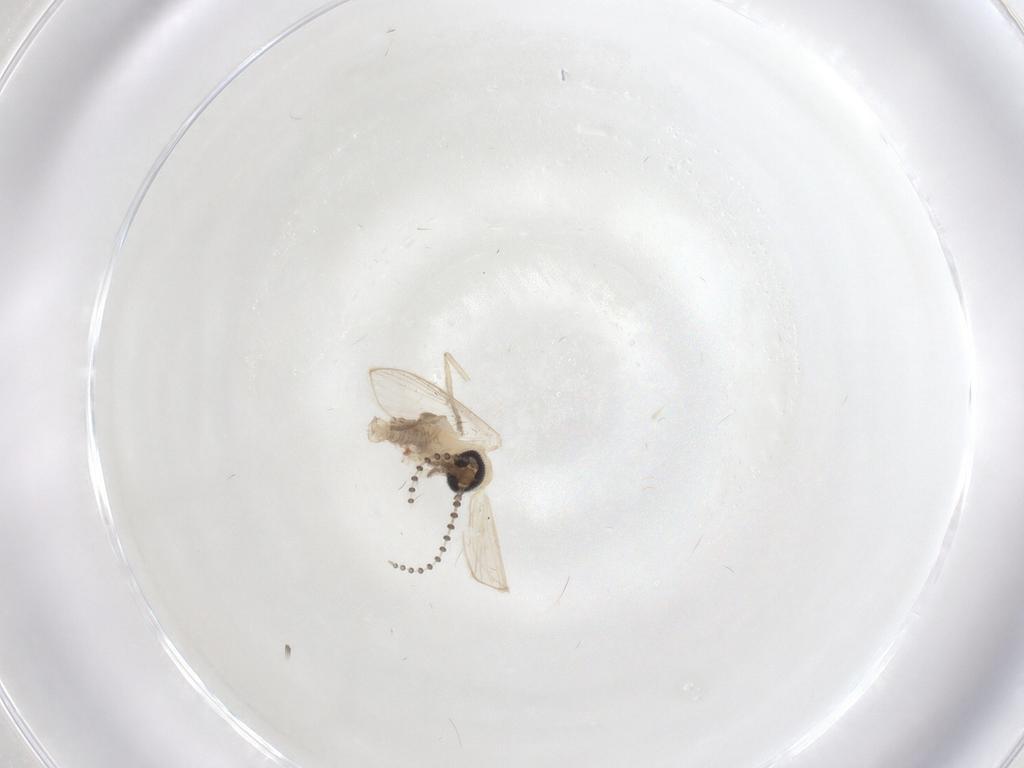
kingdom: Animalia
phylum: Arthropoda
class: Insecta
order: Diptera
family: Psychodidae
